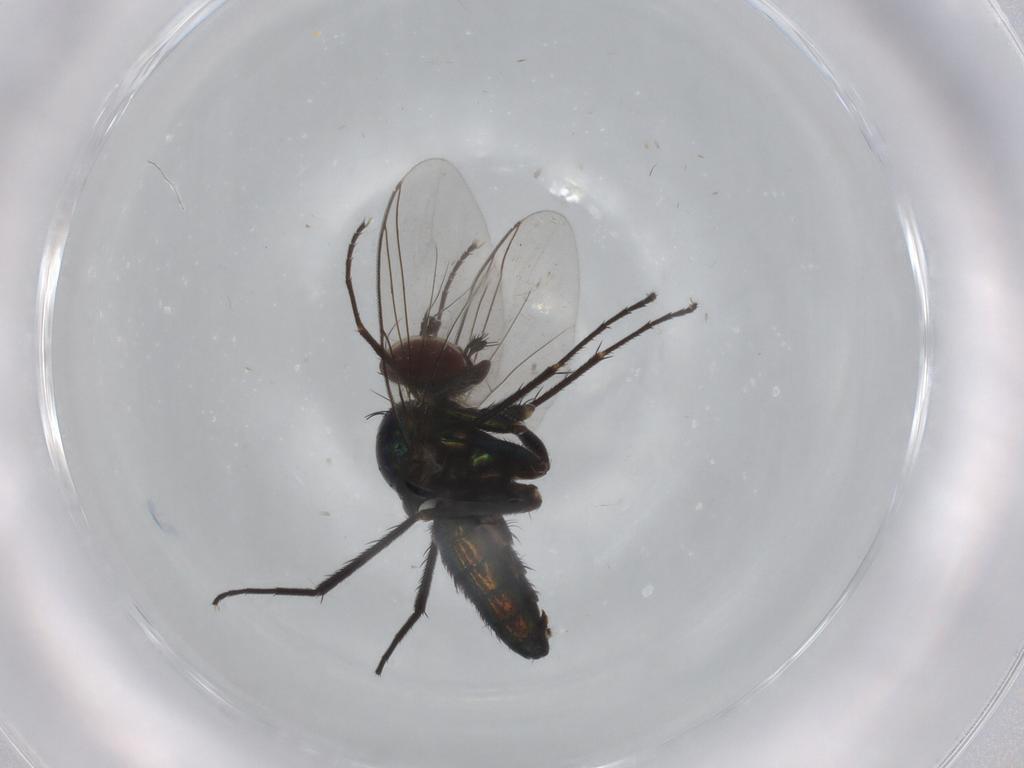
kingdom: Animalia
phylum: Arthropoda
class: Insecta
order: Diptera
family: Dolichopodidae
